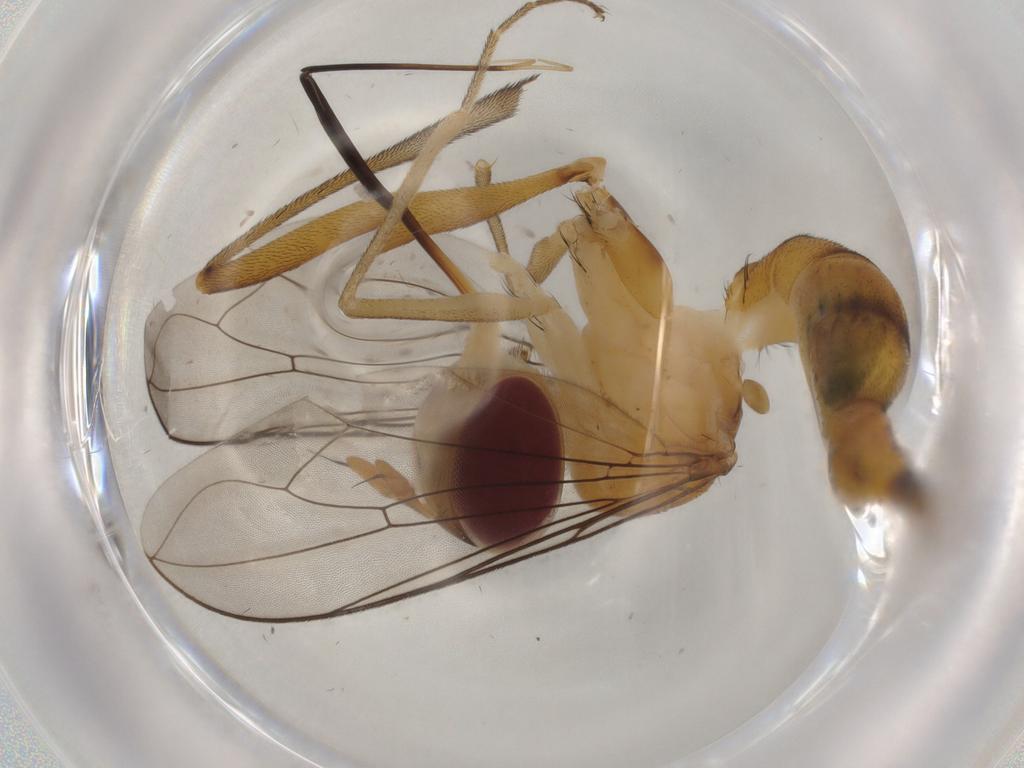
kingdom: Animalia
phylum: Arthropoda
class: Insecta
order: Diptera
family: Conopidae
